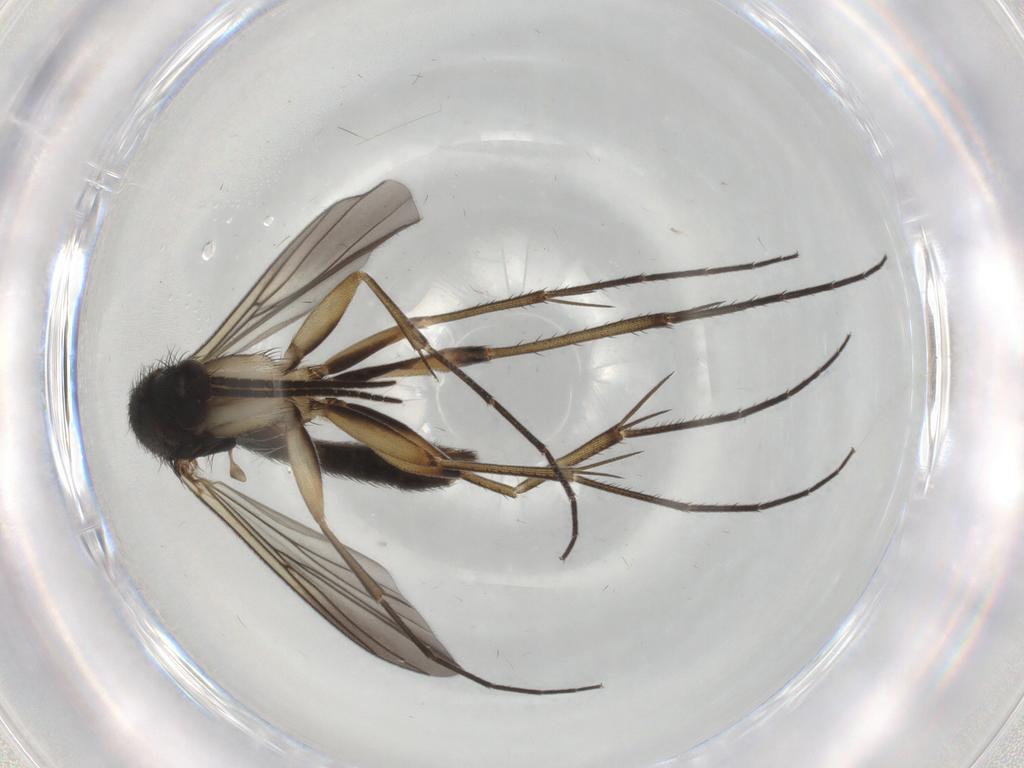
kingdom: Animalia
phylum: Arthropoda
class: Insecta
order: Diptera
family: Mycetophilidae
